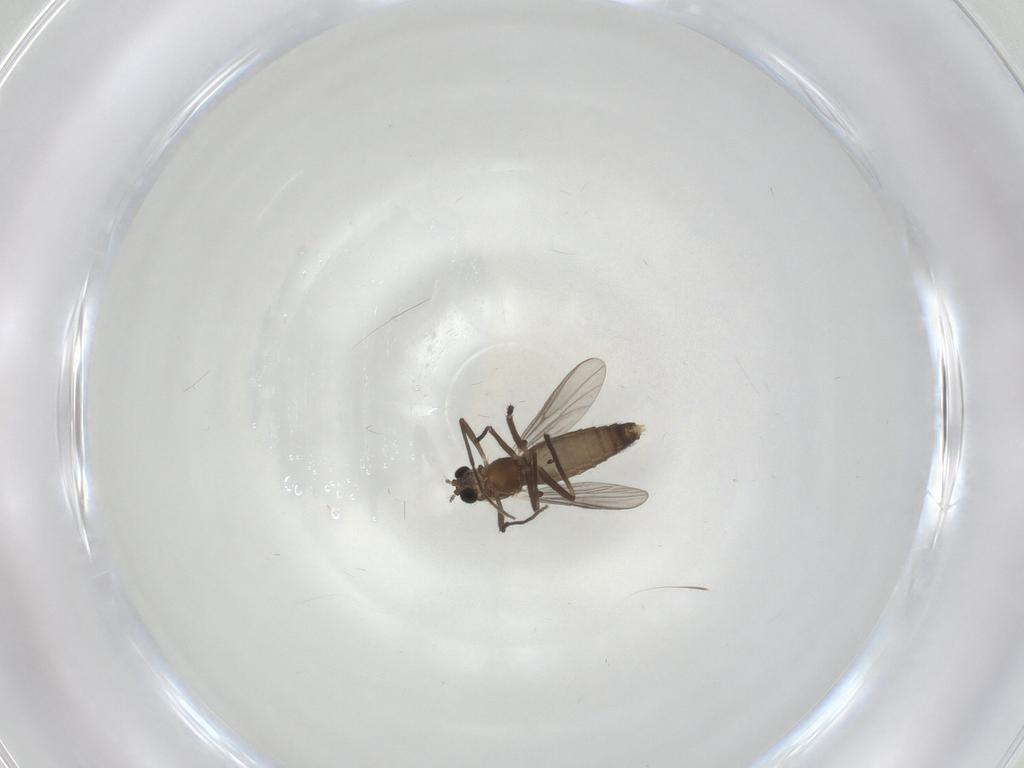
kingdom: Animalia
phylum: Arthropoda
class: Insecta
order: Diptera
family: Chironomidae
